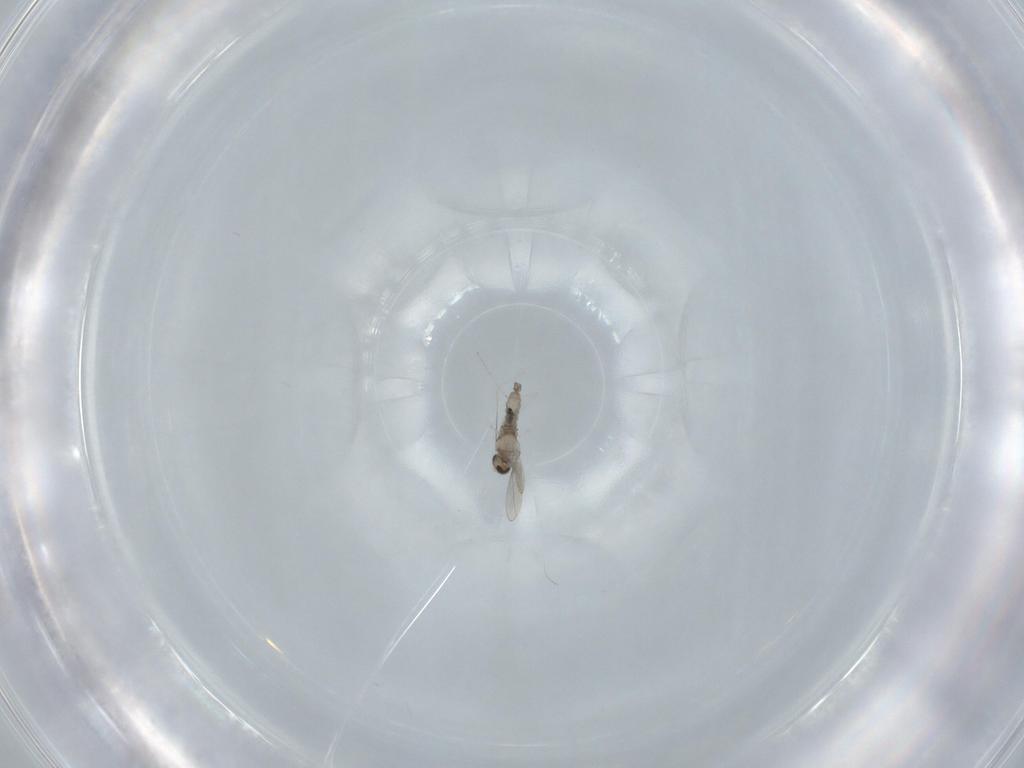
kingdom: Animalia
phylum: Arthropoda
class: Insecta
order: Diptera
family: Cecidomyiidae
